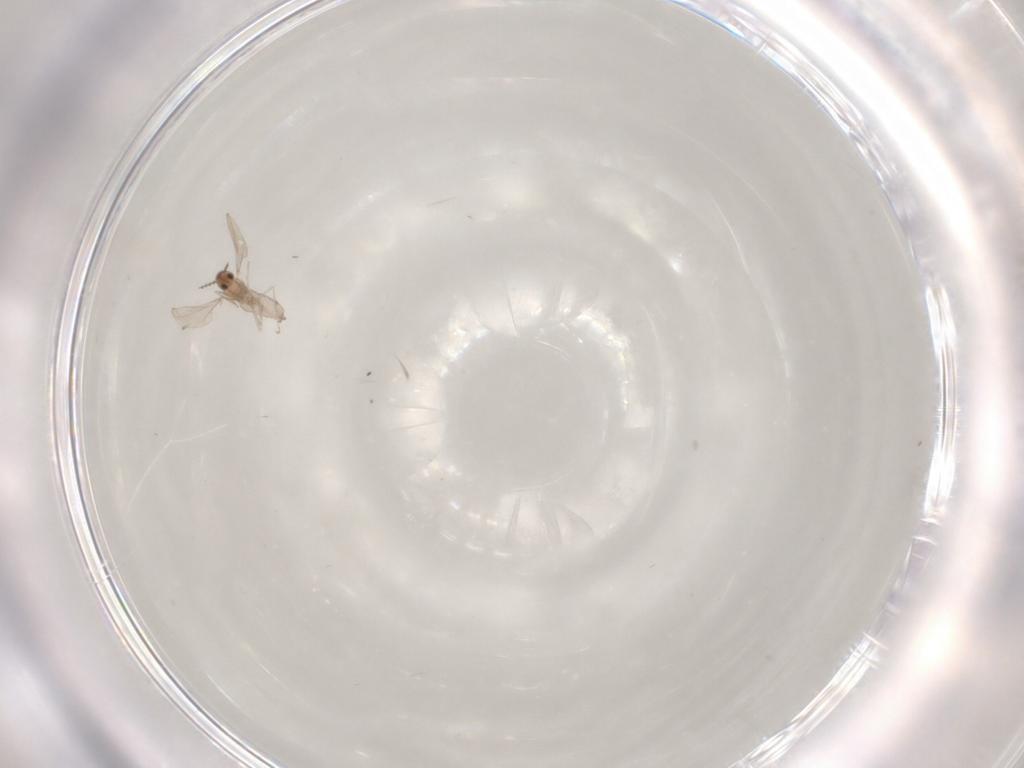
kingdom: Animalia
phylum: Arthropoda
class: Insecta
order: Diptera
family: Cecidomyiidae
